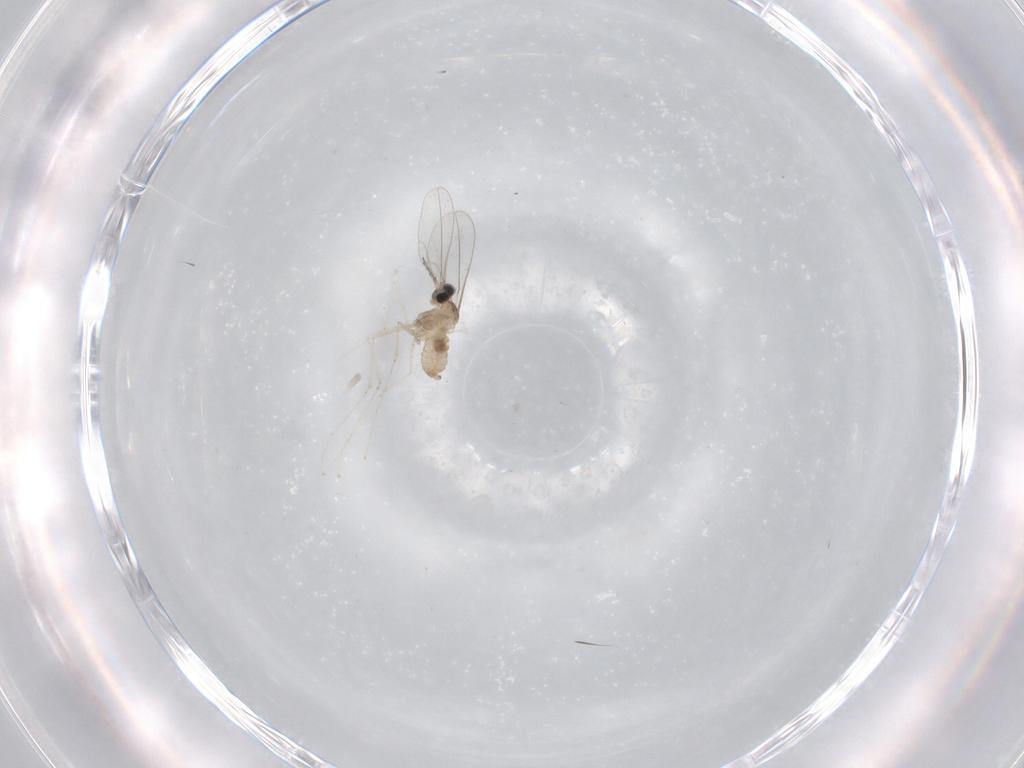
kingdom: Animalia
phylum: Arthropoda
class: Insecta
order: Diptera
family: Cecidomyiidae
